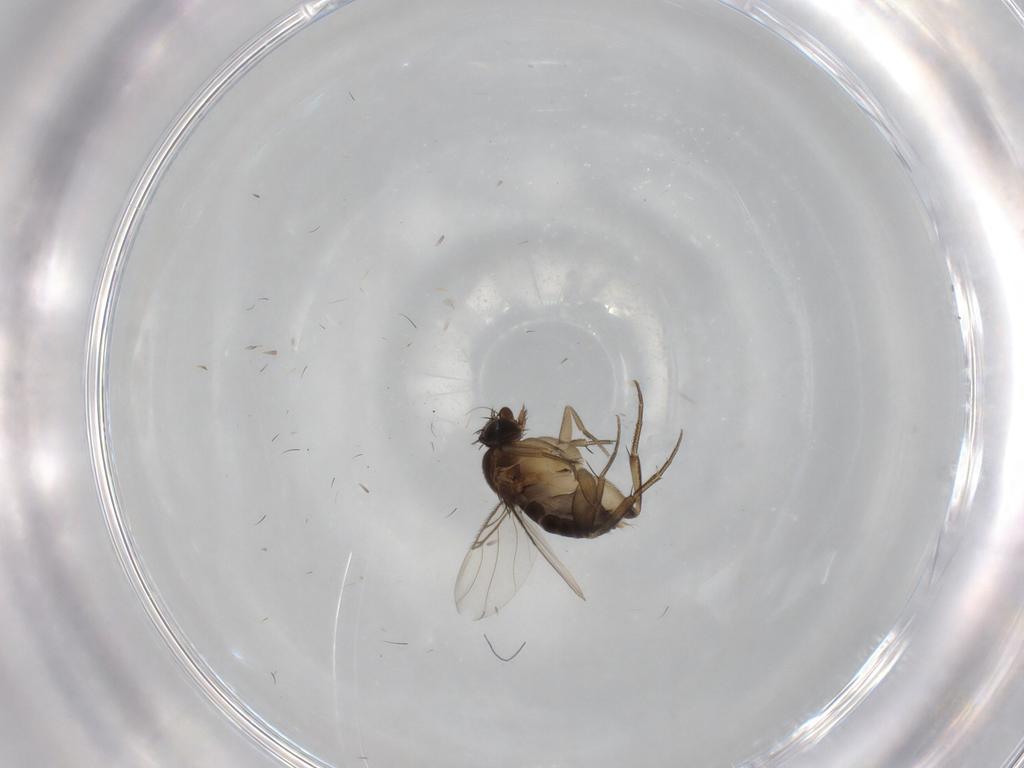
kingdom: Animalia
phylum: Arthropoda
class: Insecta
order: Diptera
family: Phoridae
